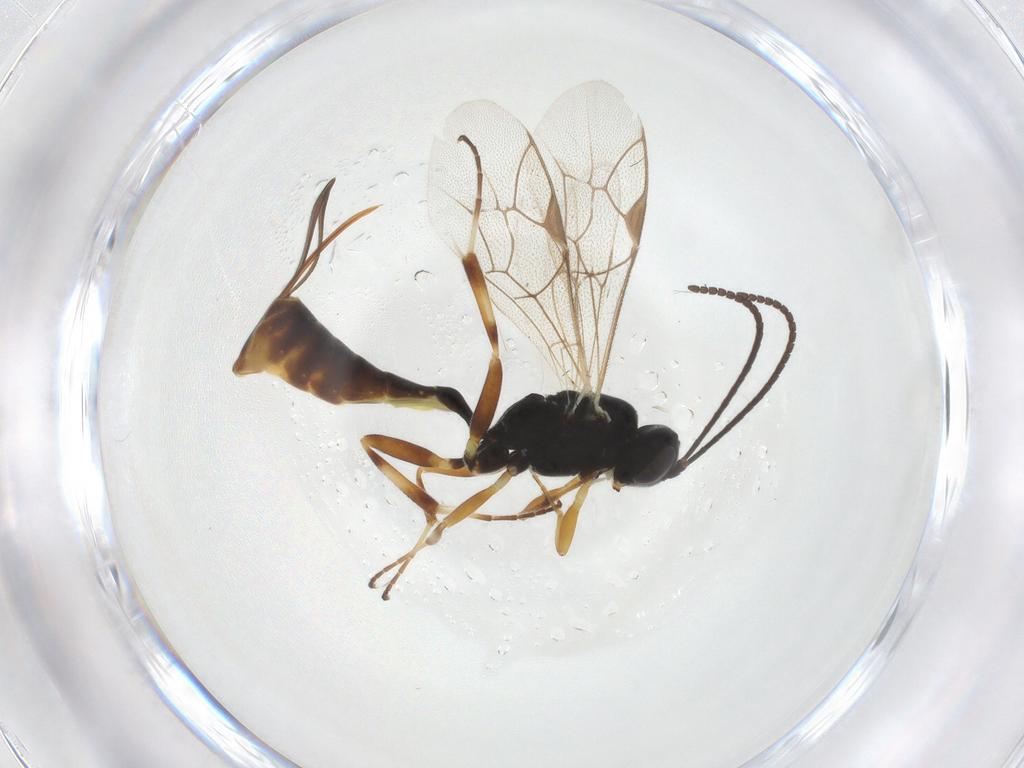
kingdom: Animalia
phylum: Arthropoda
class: Insecta
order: Hymenoptera
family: Ichneumonidae
